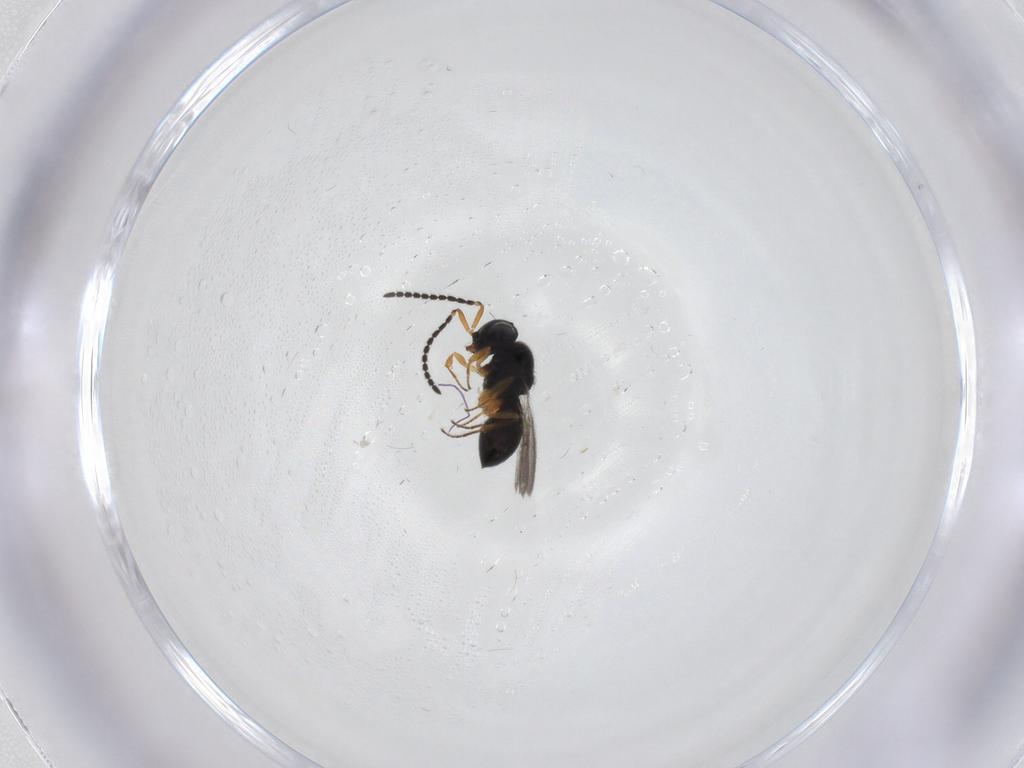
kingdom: Animalia
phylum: Arthropoda
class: Insecta
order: Hymenoptera
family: Scelionidae
